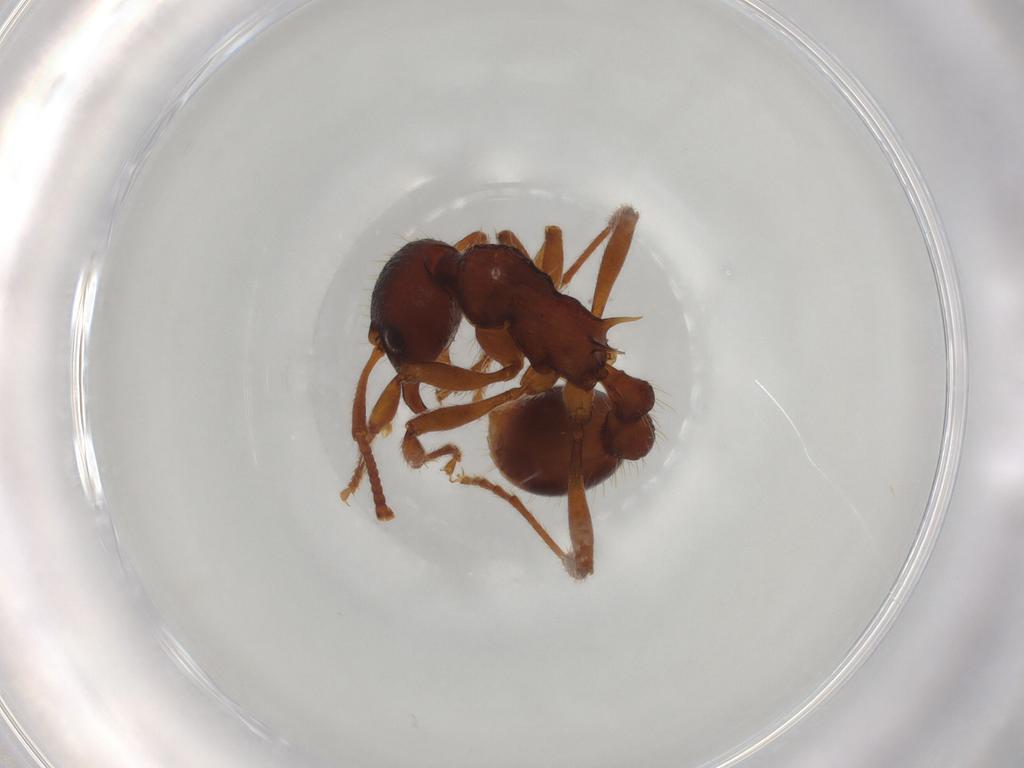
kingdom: Animalia
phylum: Arthropoda
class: Insecta
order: Hymenoptera
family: Formicidae
